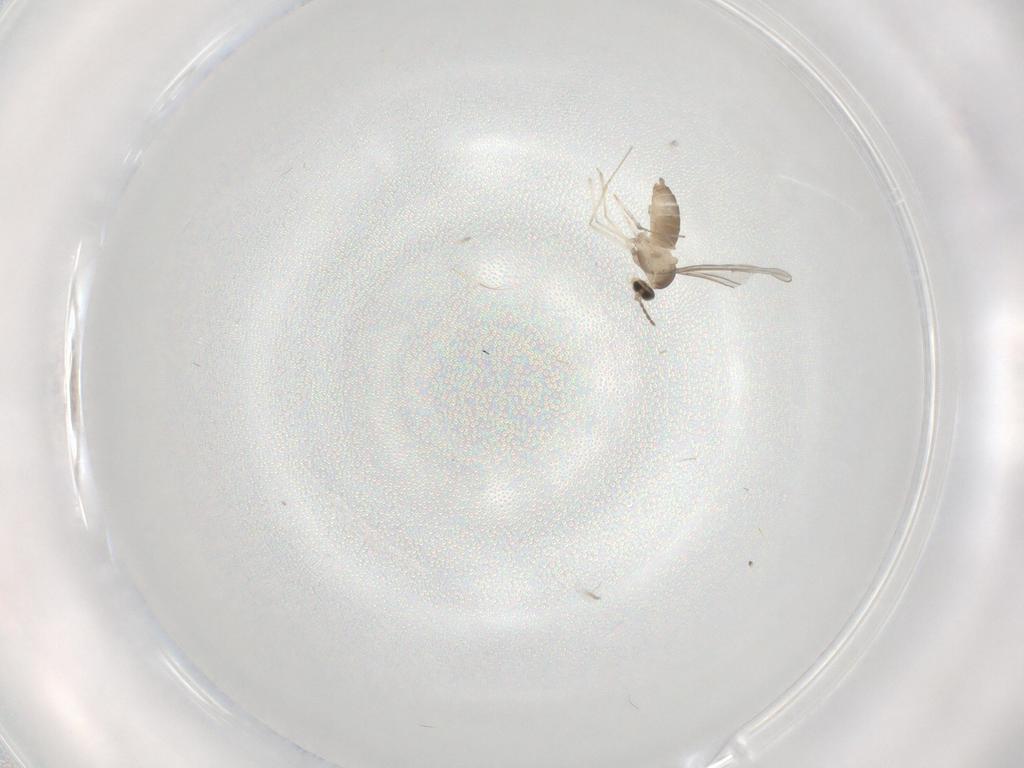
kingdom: Animalia
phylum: Arthropoda
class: Insecta
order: Diptera
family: Cecidomyiidae
